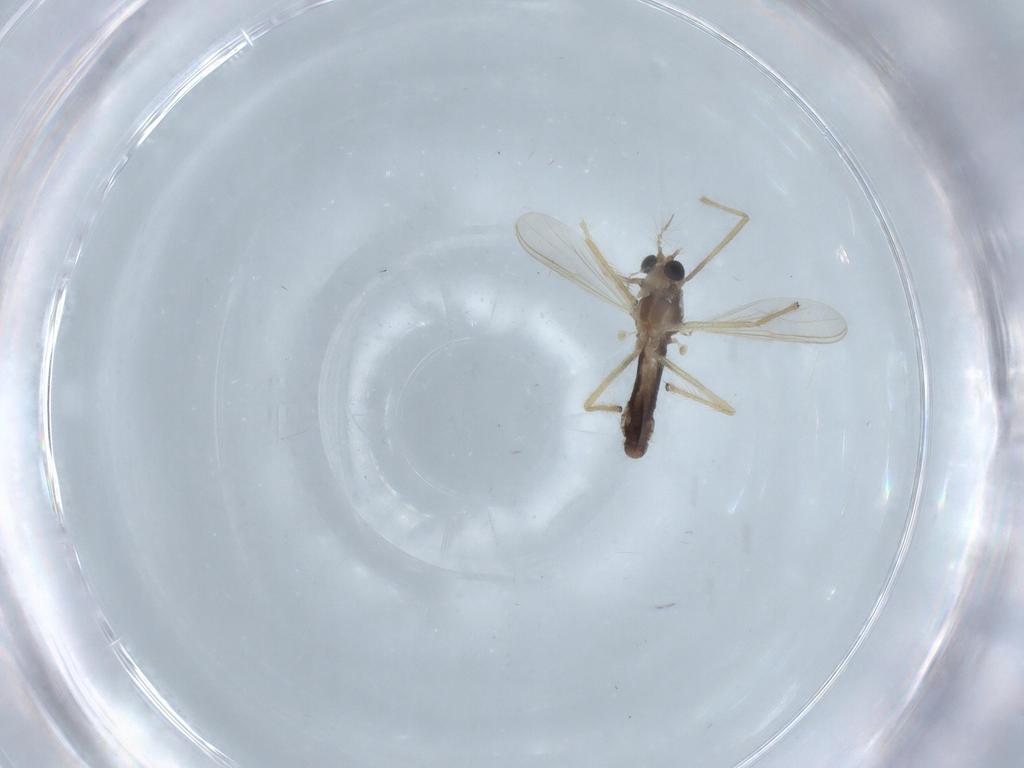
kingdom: Animalia
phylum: Arthropoda
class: Insecta
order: Diptera
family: Chironomidae
